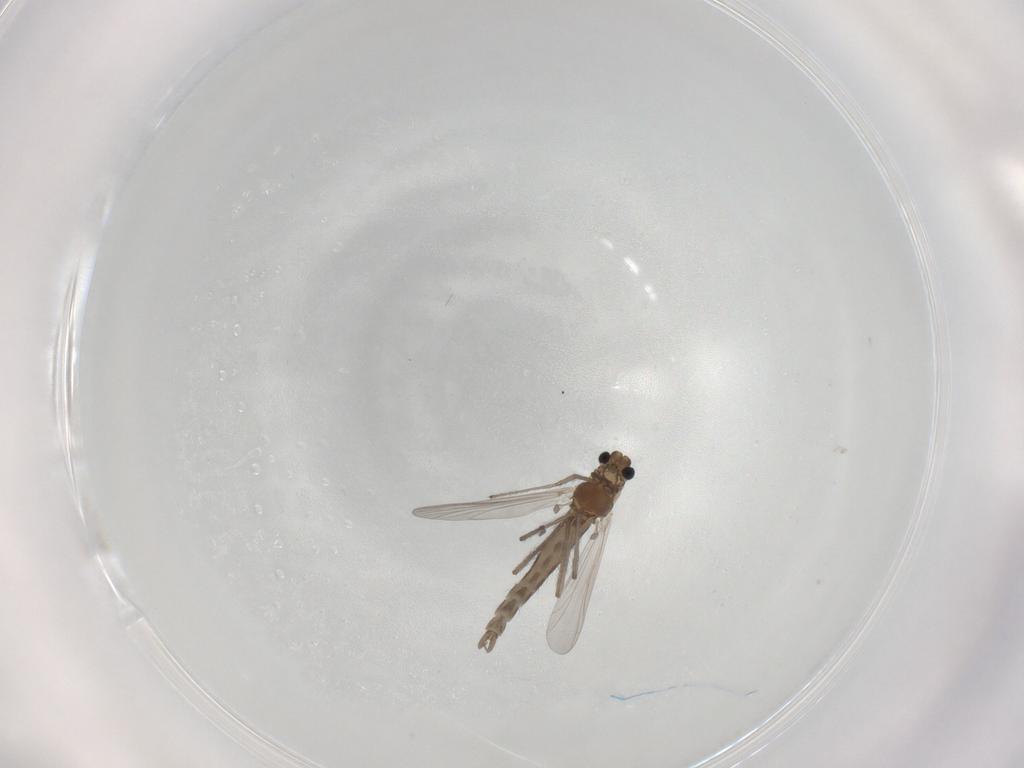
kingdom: Animalia
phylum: Arthropoda
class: Insecta
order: Diptera
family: Chironomidae
